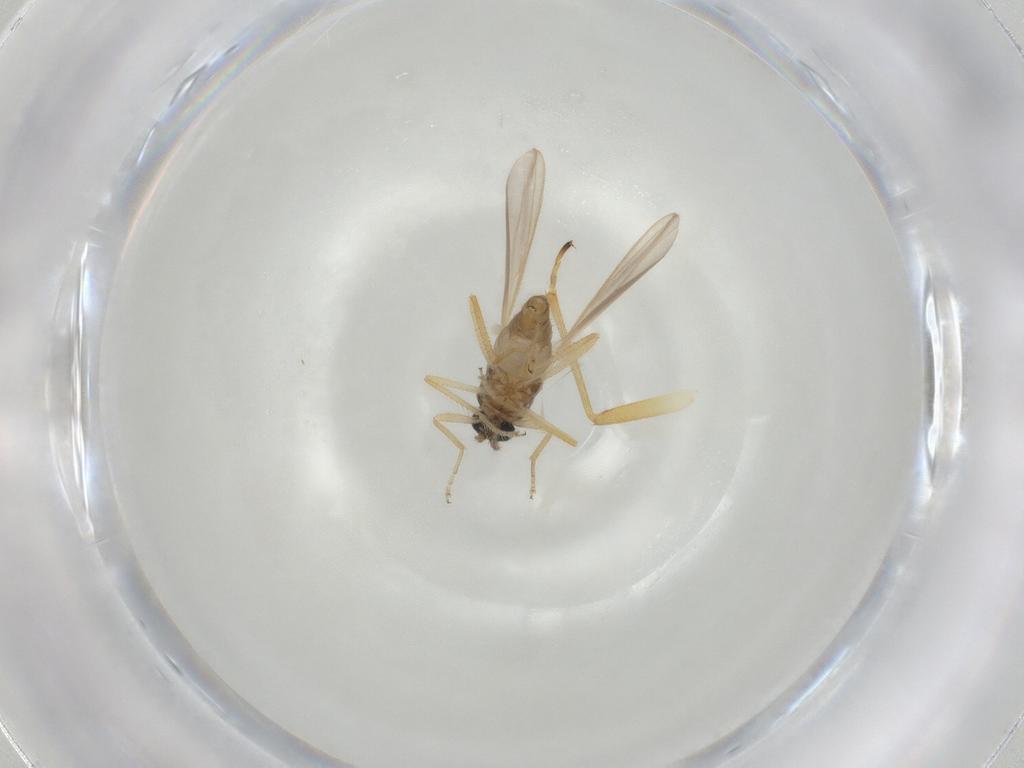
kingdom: Animalia
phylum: Arthropoda
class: Insecta
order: Diptera
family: Ceratopogonidae
